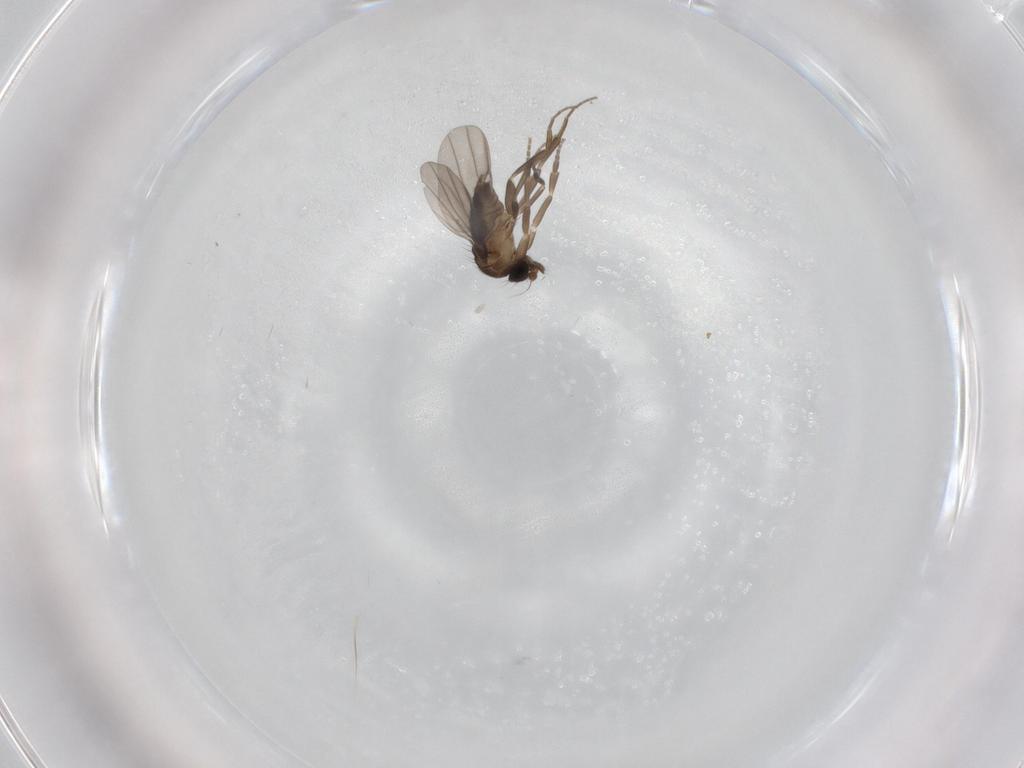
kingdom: Animalia
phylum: Arthropoda
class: Insecta
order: Diptera
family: Phoridae
